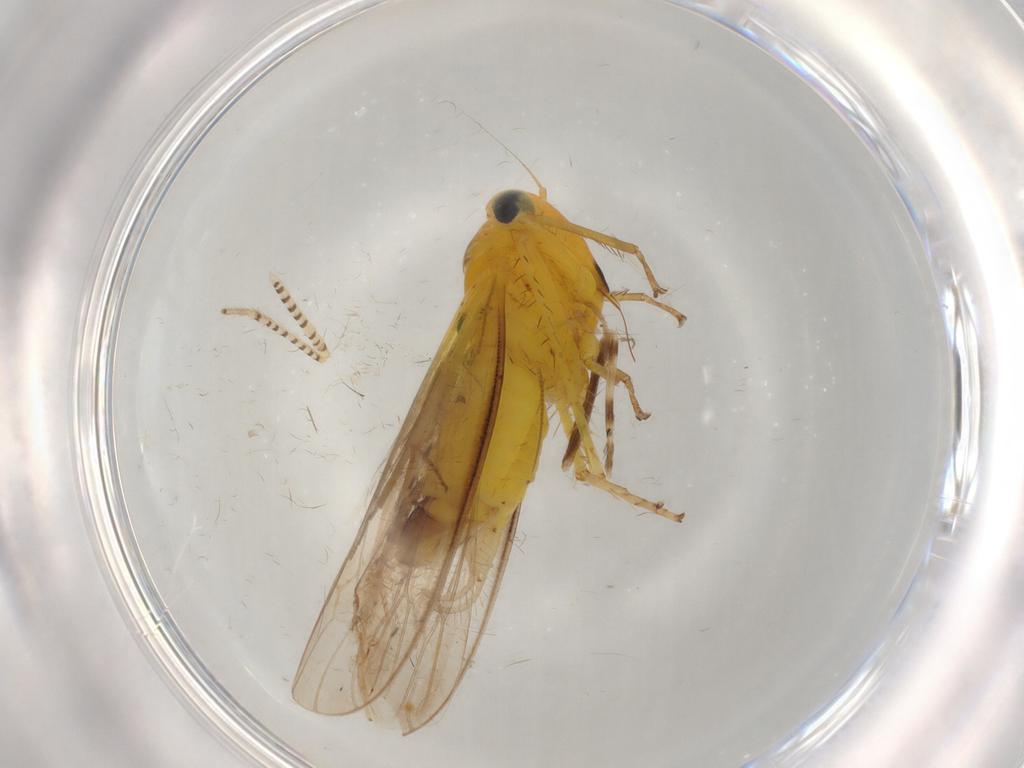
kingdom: Animalia
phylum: Arthropoda
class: Insecta
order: Hemiptera
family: Cicadellidae
